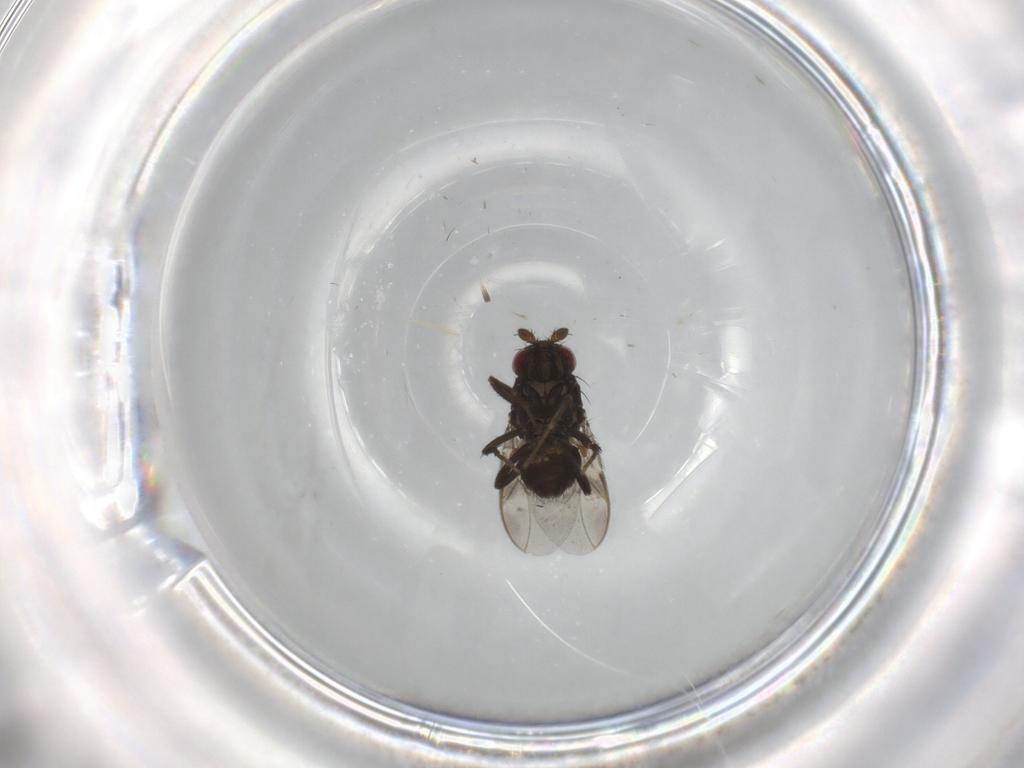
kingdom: Animalia
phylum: Arthropoda
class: Insecta
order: Diptera
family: Sphaeroceridae
